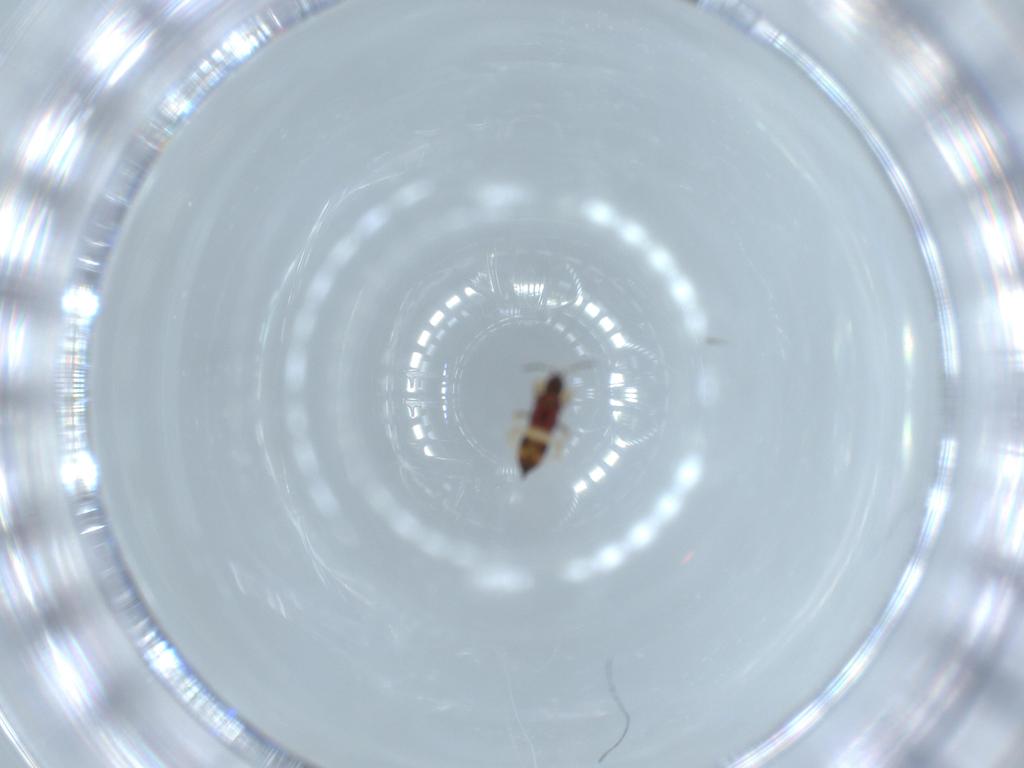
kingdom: Animalia
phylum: Arthropoda
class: Insecta
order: Thysanoptera
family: Phlaeothripidae
